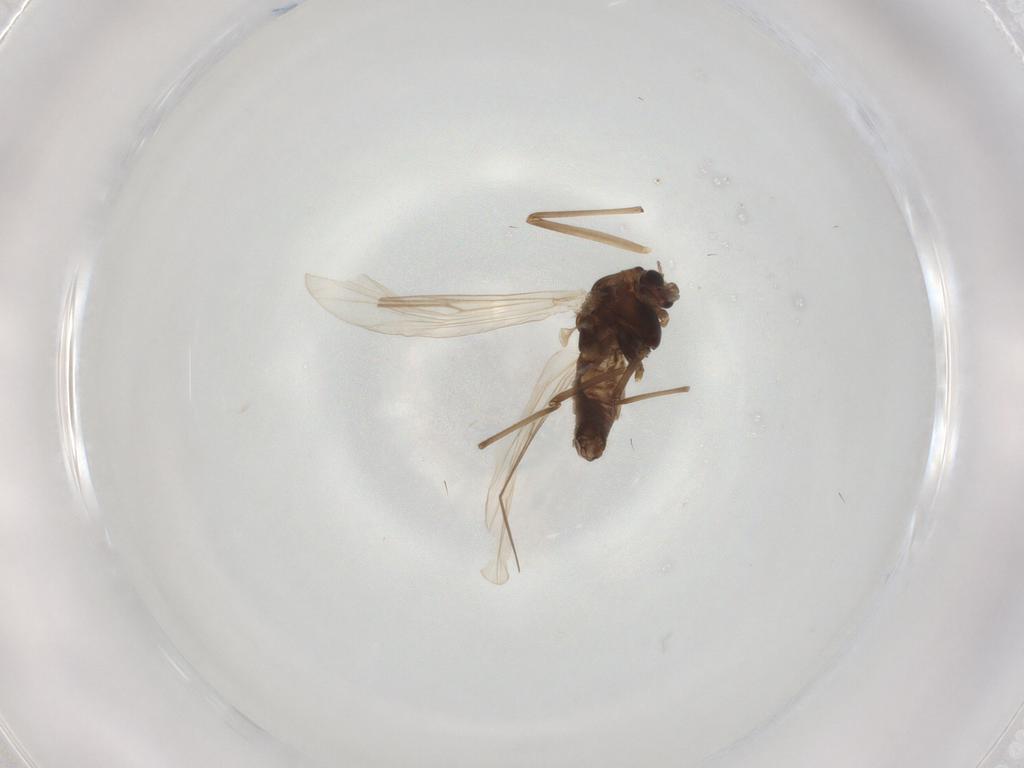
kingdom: Animalia
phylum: Arthropoda
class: Insecta
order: Diptera
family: Chironomidae
